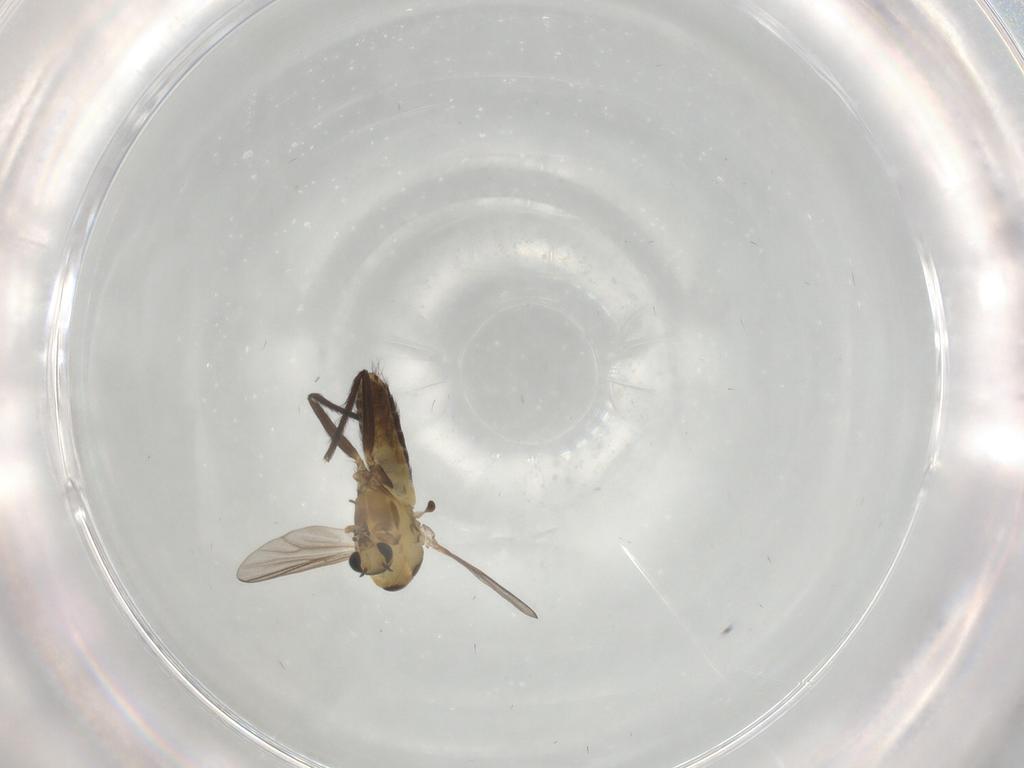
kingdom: Animalia
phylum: Arthropoda
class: Insecta
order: Diptera
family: Chironomidae
